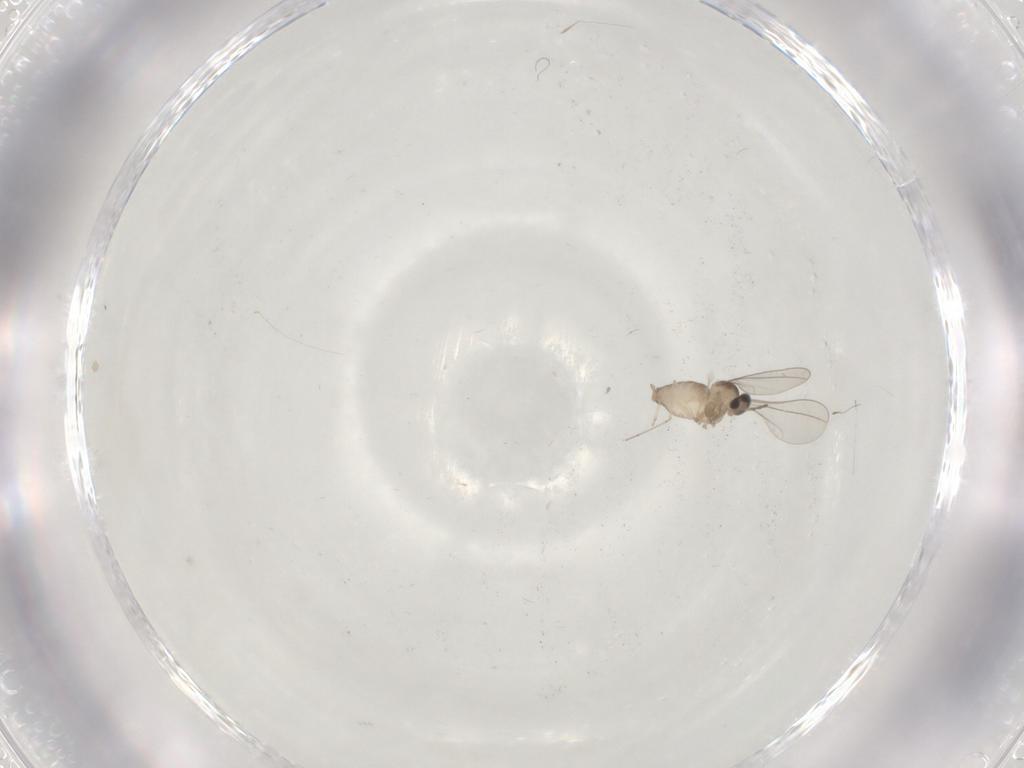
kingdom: Animalia
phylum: Arthropoda
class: Insecta
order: Diptera
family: Cecidomyiidae
